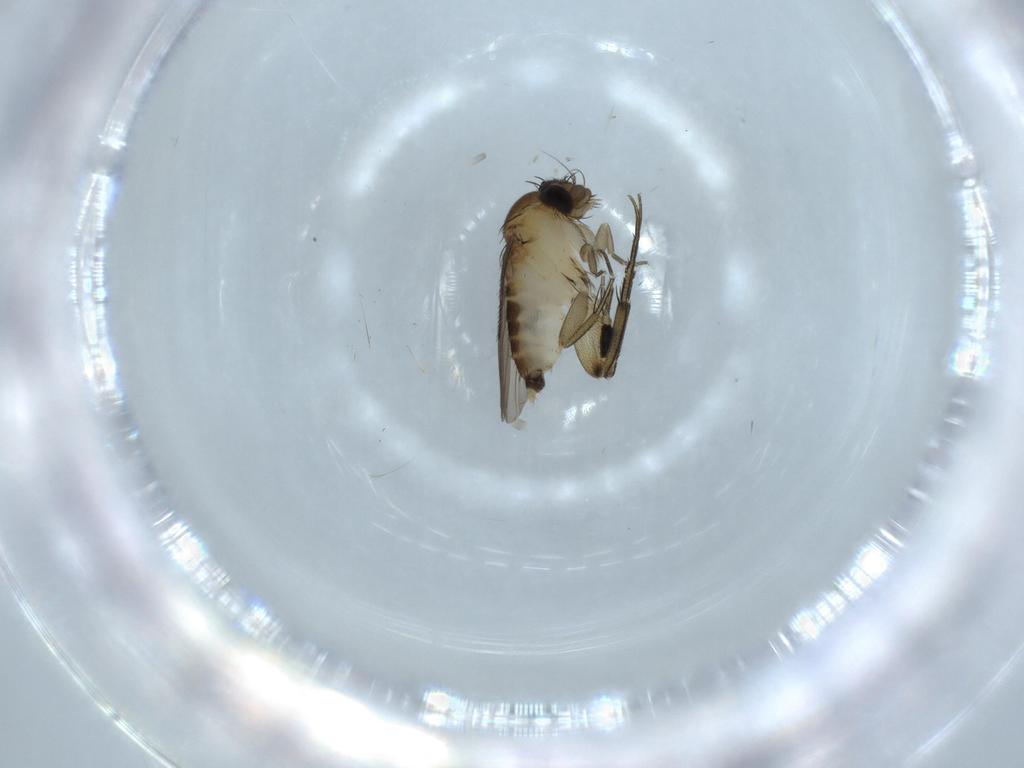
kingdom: Animalia
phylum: Arthropoda
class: Insecta
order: Diptera
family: Phoridae
